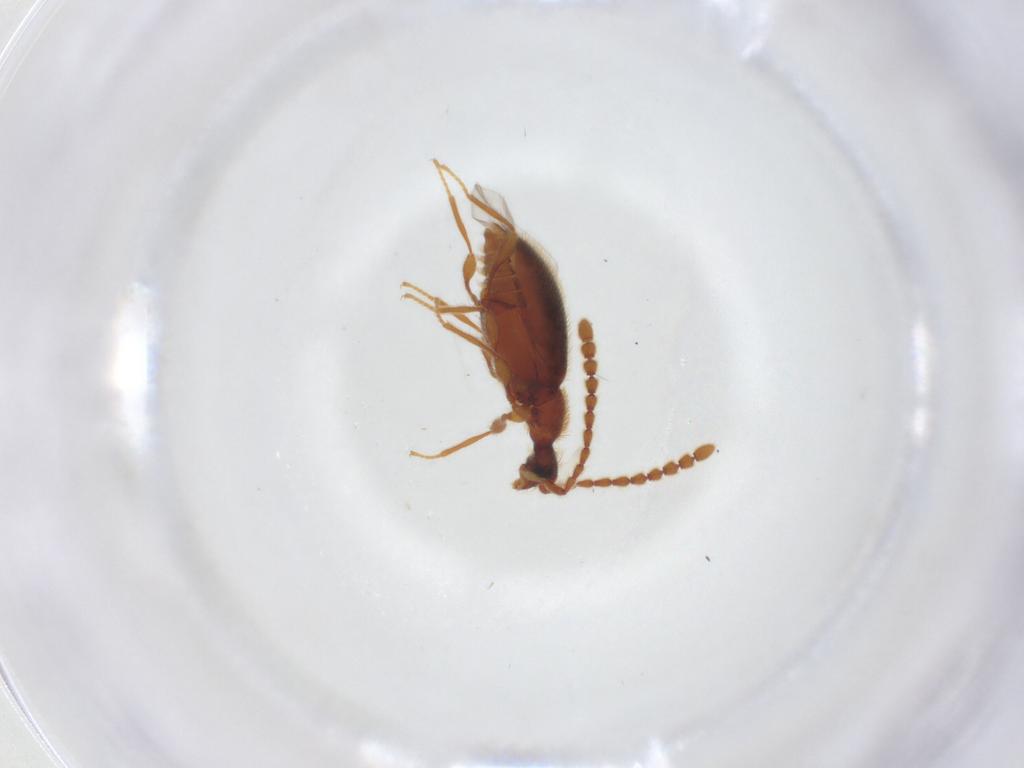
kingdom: Animalia
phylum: Arthropoda
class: Insecta
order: Coleoptera
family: Staphylinidae
